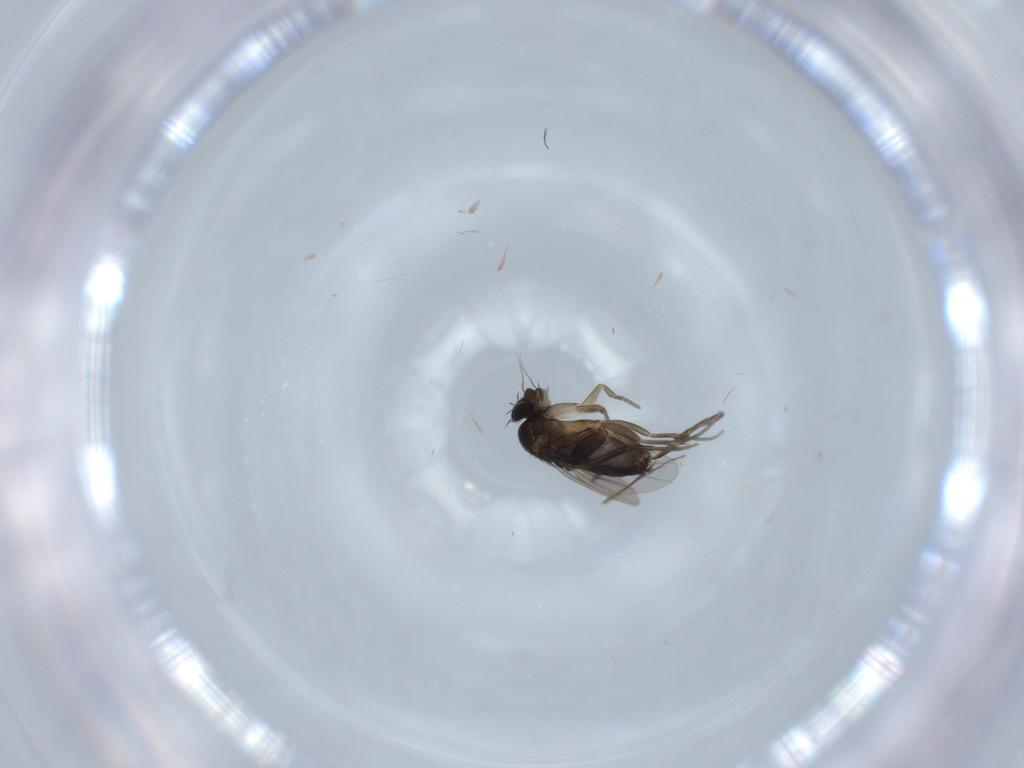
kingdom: Animalia
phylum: Arthropoda
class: Insecta
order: Diptera
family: Phoridae
